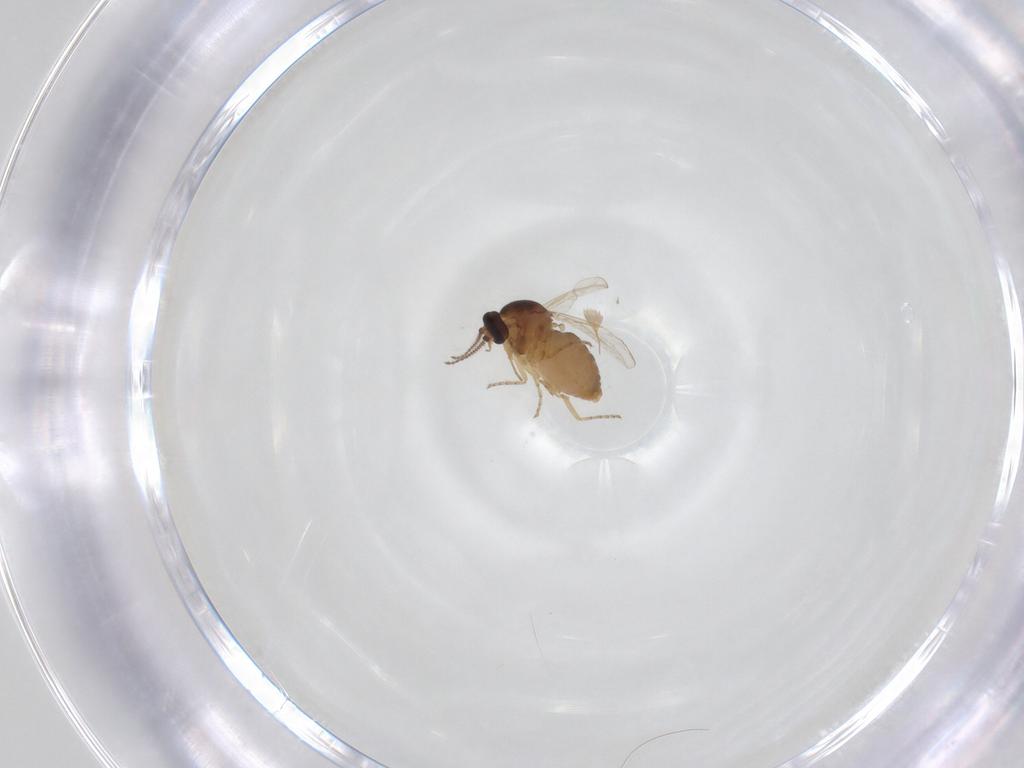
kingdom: Animalia
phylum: Arthropoda
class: Insecta
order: Diptera
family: Ceratopogonidae
